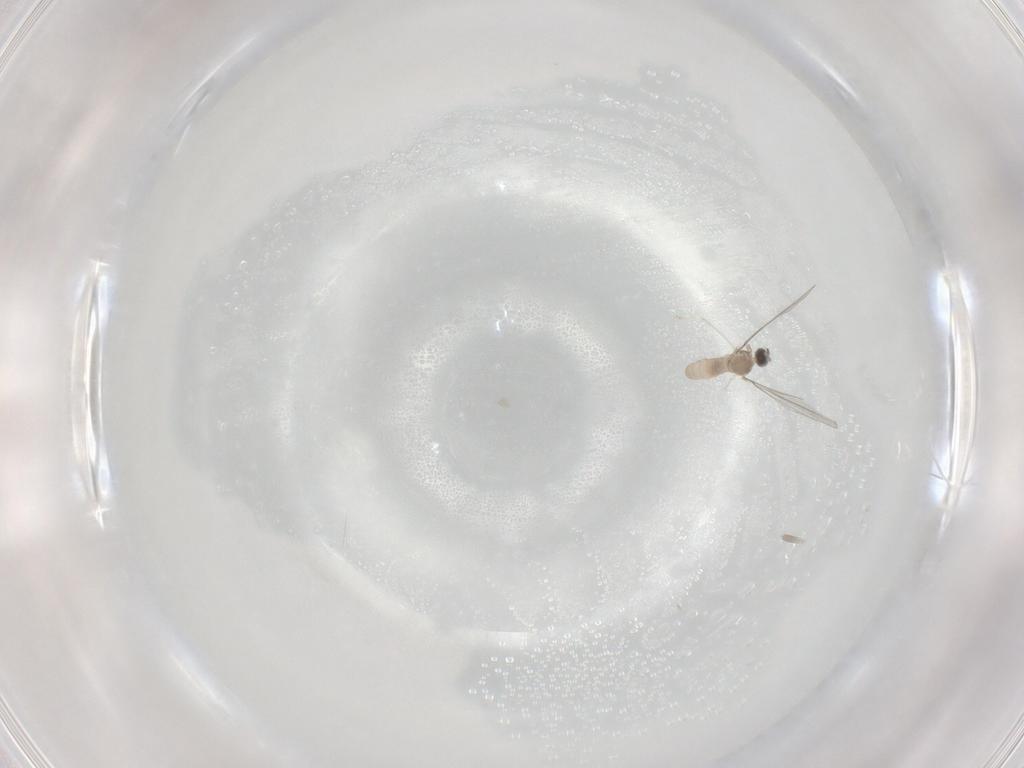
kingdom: Animalia
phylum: Arthropoda
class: Insecta
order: Diptera
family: Cecidomyiidae
